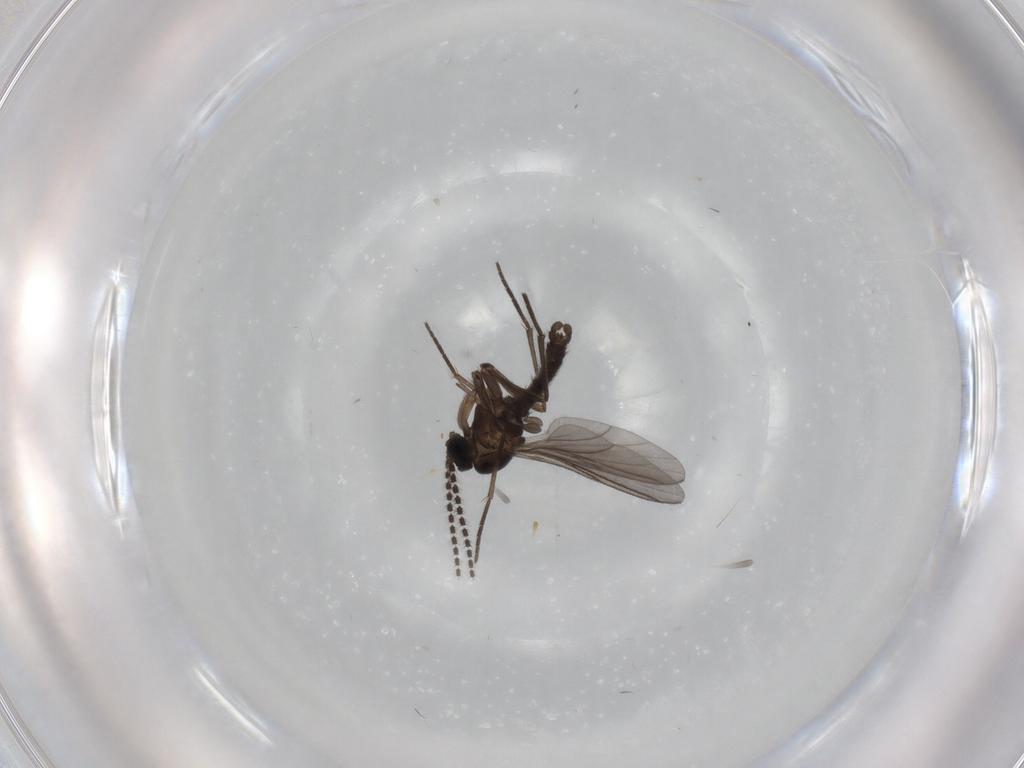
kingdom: Animalia
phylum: Arthropoda
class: Insecta
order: Diptera
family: Sciaridae
